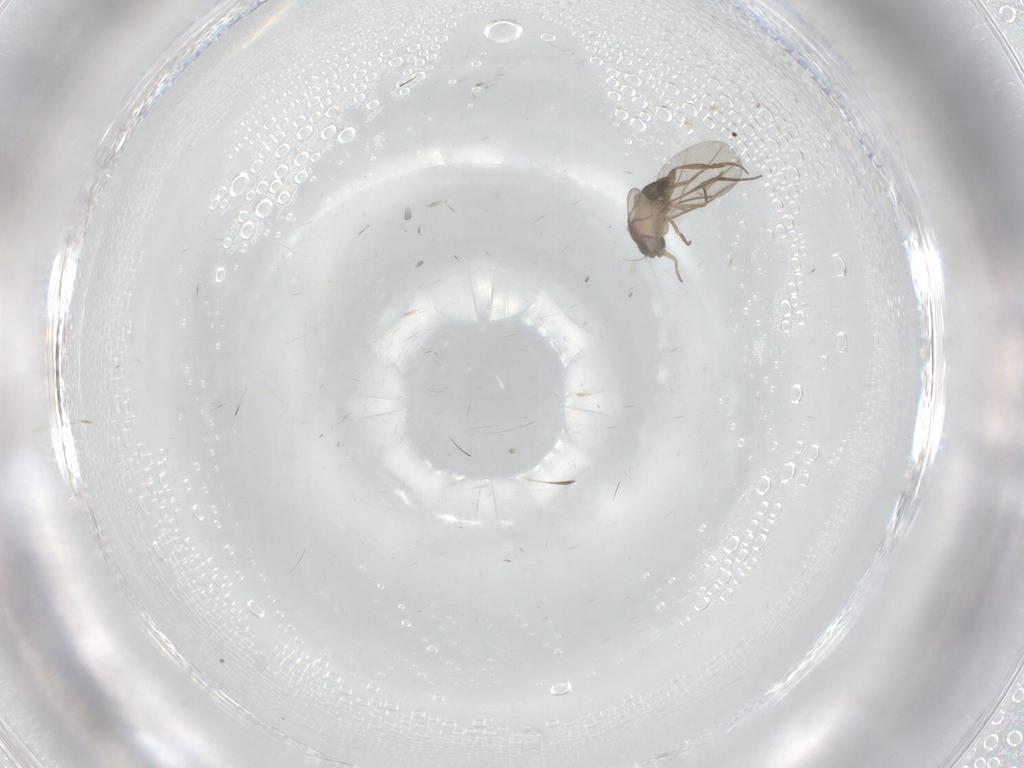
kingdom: Animalia
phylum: Arthropoda
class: Insecta
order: Diptera
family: Phoridae
